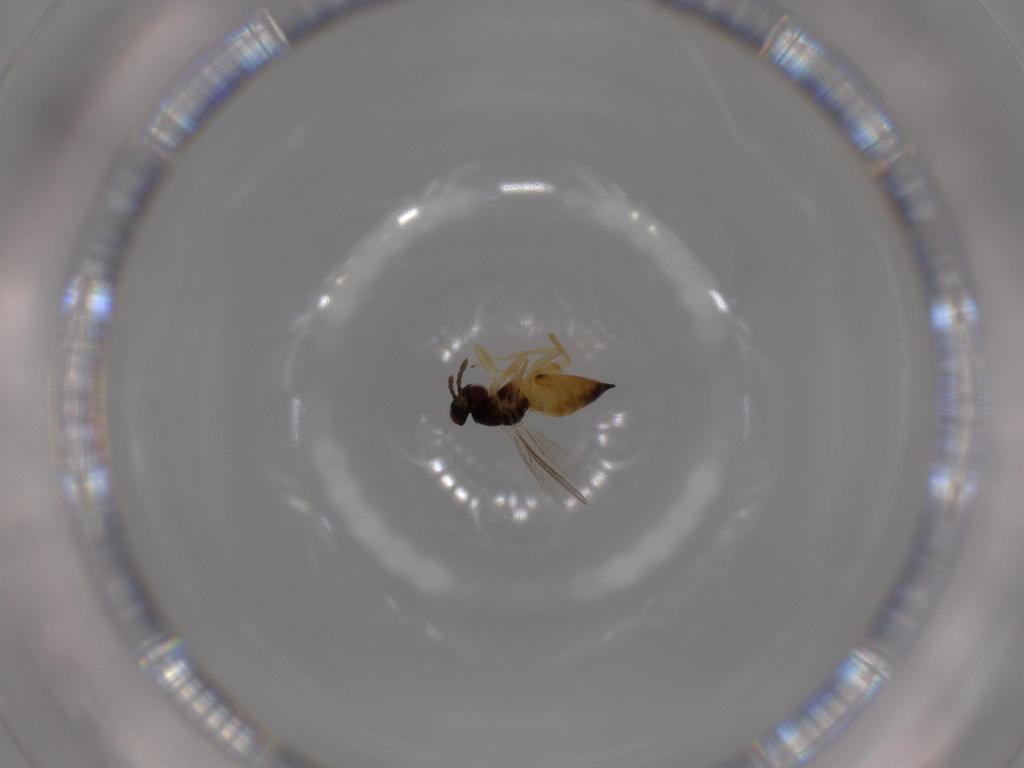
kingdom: Animalia
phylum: Arthropoda
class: Insecta
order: Hymenoptera
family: Eulophidae
